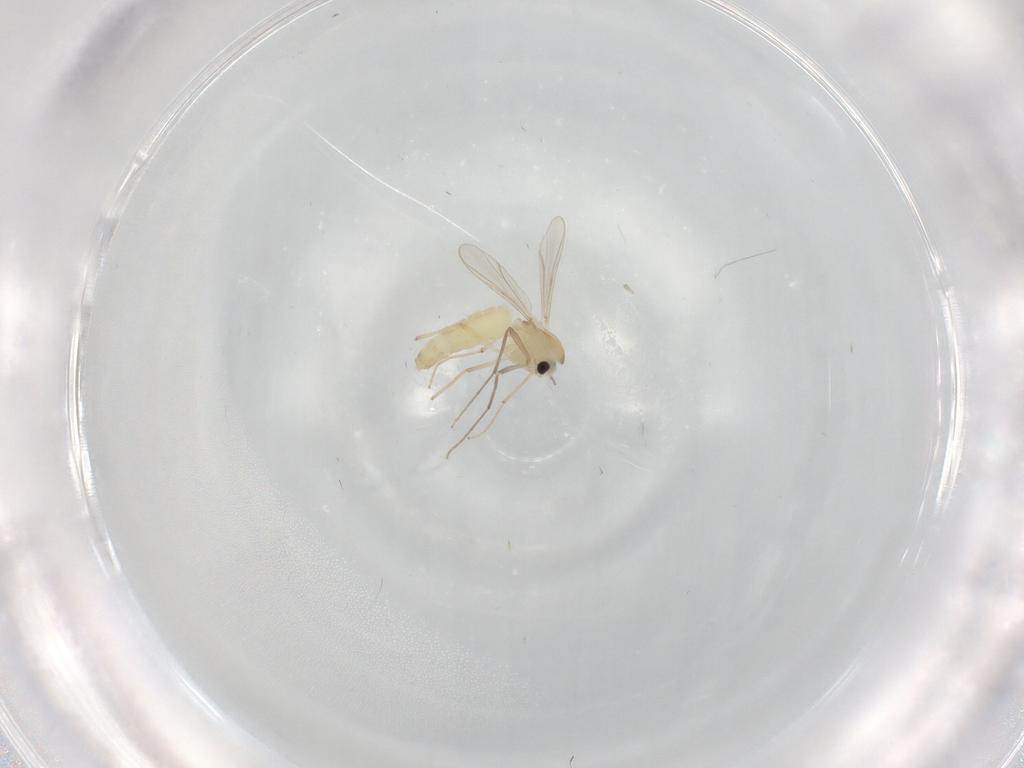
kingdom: Animalia
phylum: Arthropoda
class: Insecta
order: Diptera
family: Chironomidae
